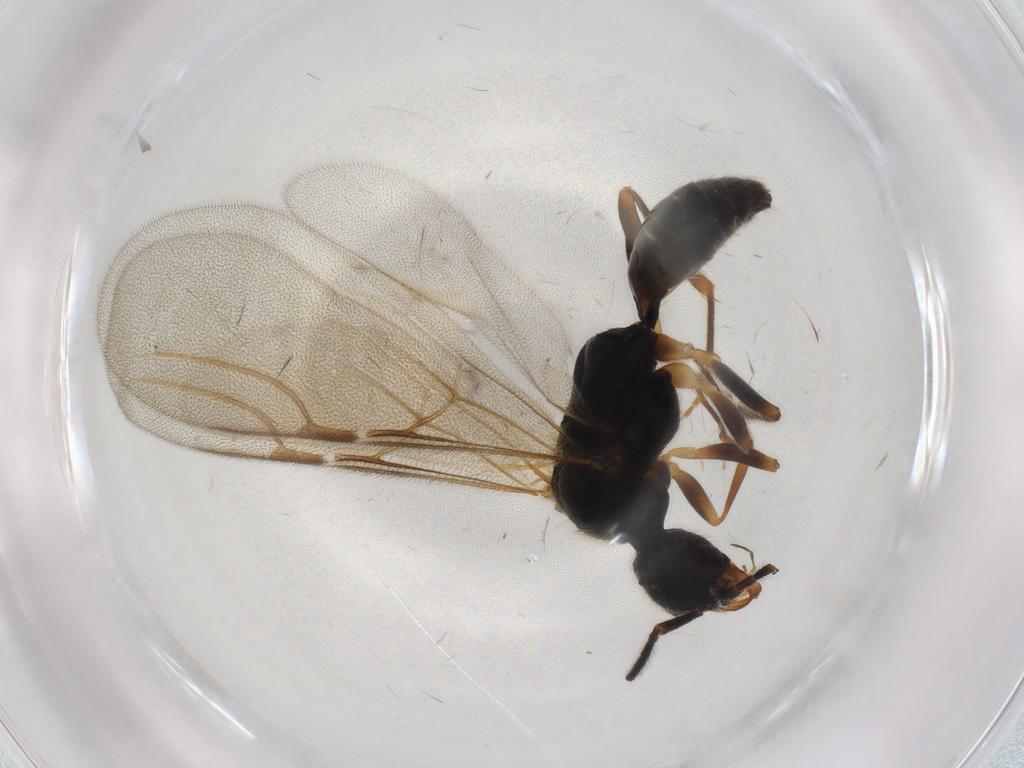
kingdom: Animalia
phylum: Arthropoda
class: Insecta
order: Hymenoptera
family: Bethylidae
